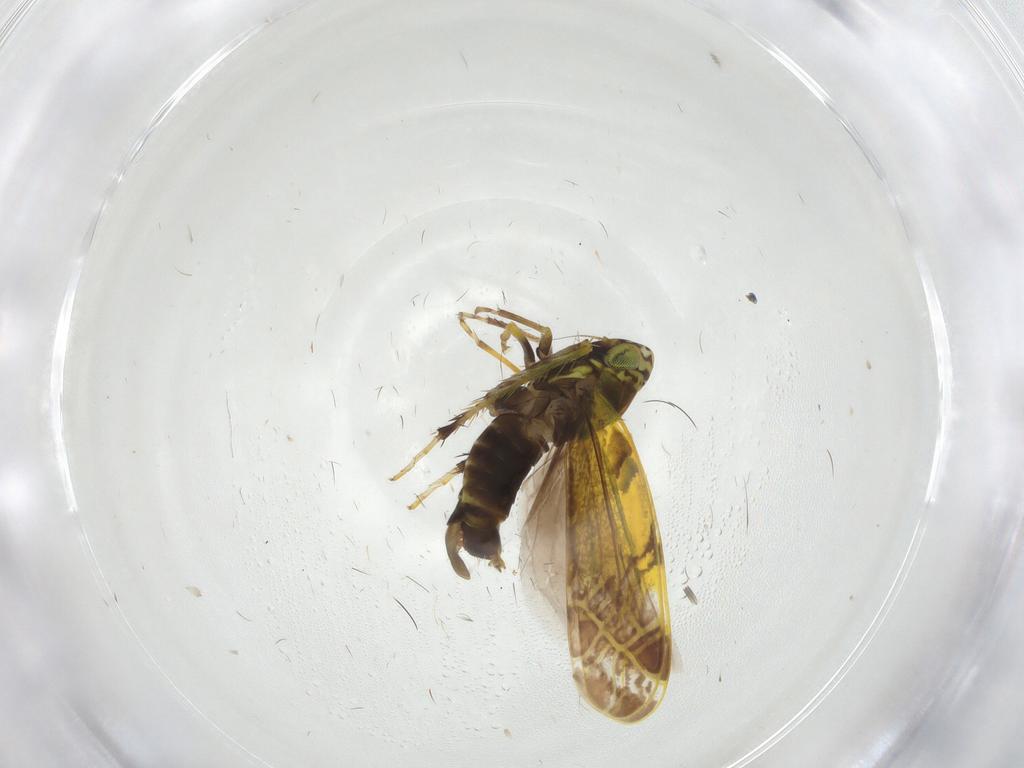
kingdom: Animalia
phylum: Arthropoda
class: Insecta
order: Hemiptera
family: Cicadellidae
